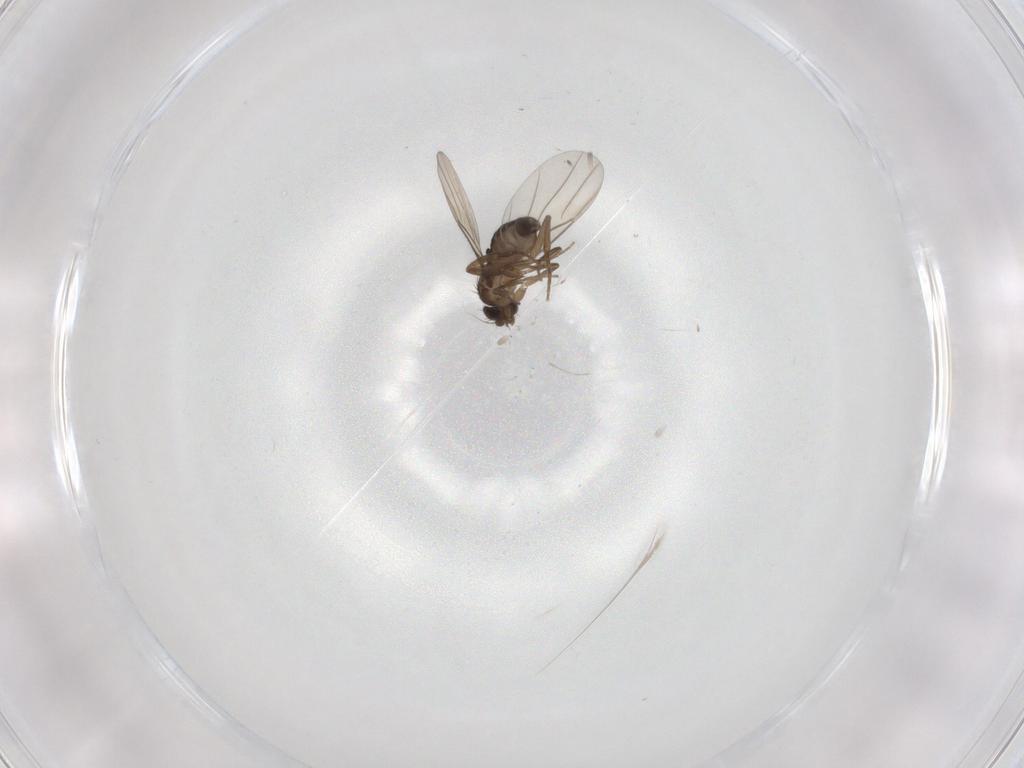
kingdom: Animalia
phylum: Arthropoda
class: Insecta
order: Diptera
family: Phoridae
